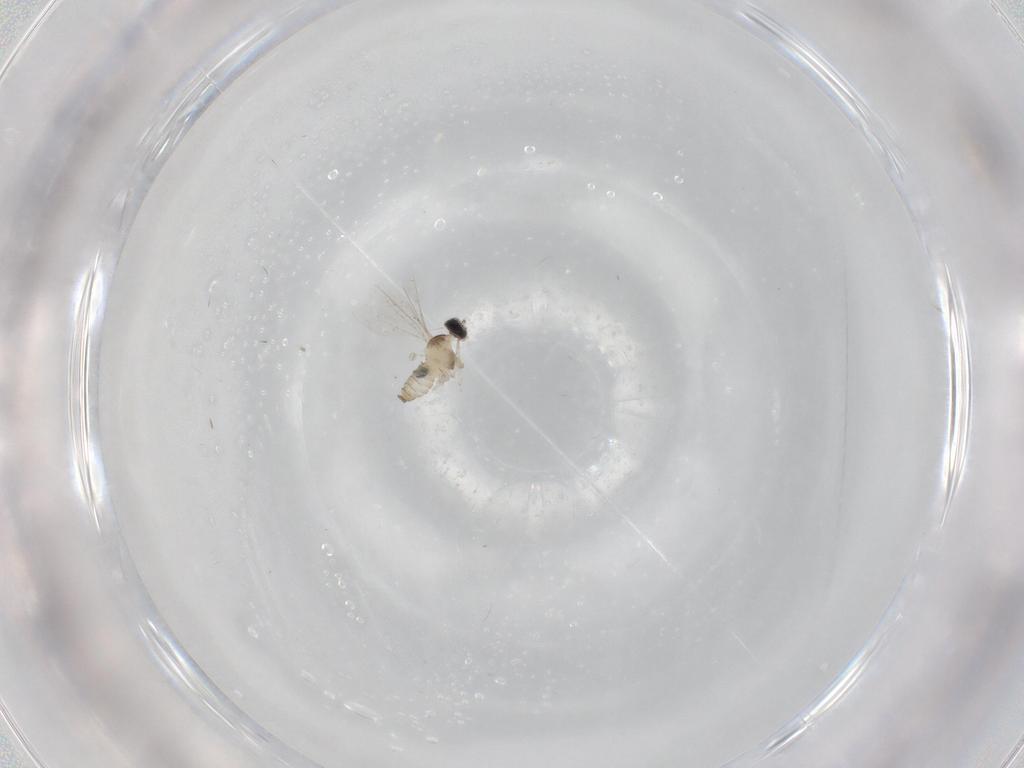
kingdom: Animalia
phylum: Arthropoda
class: Insecta
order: Diptera
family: Cecidomyiidae
